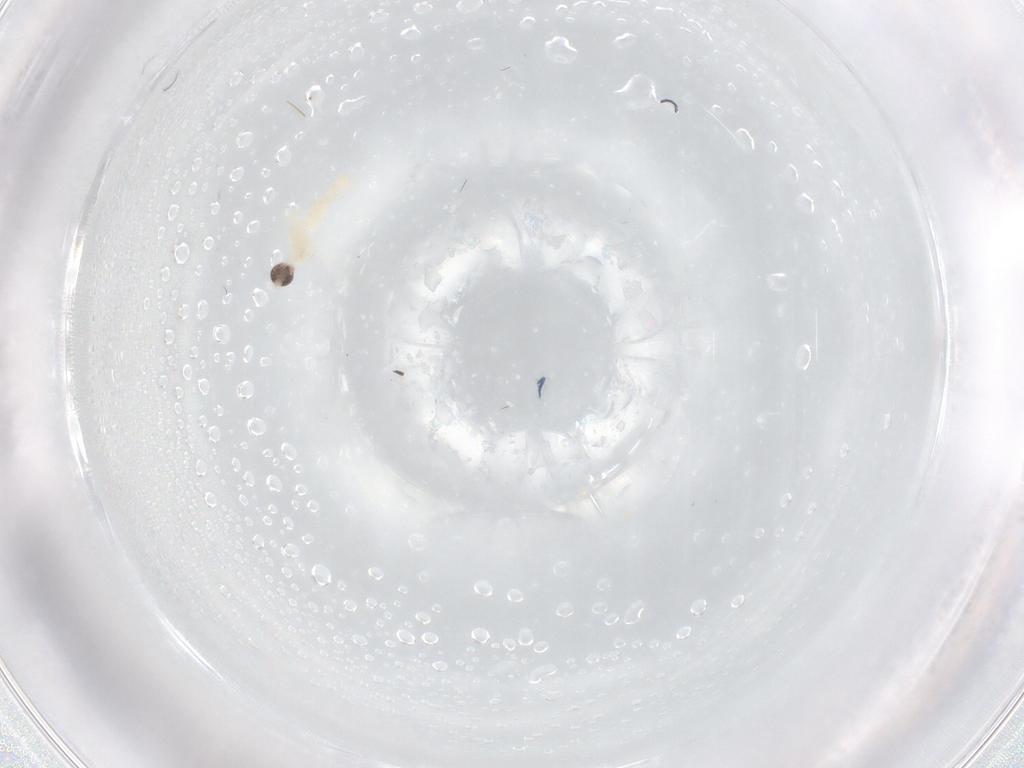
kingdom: Animalia
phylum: Arthropoda
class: Insecta
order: Diptera
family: Cecidomyiidae
